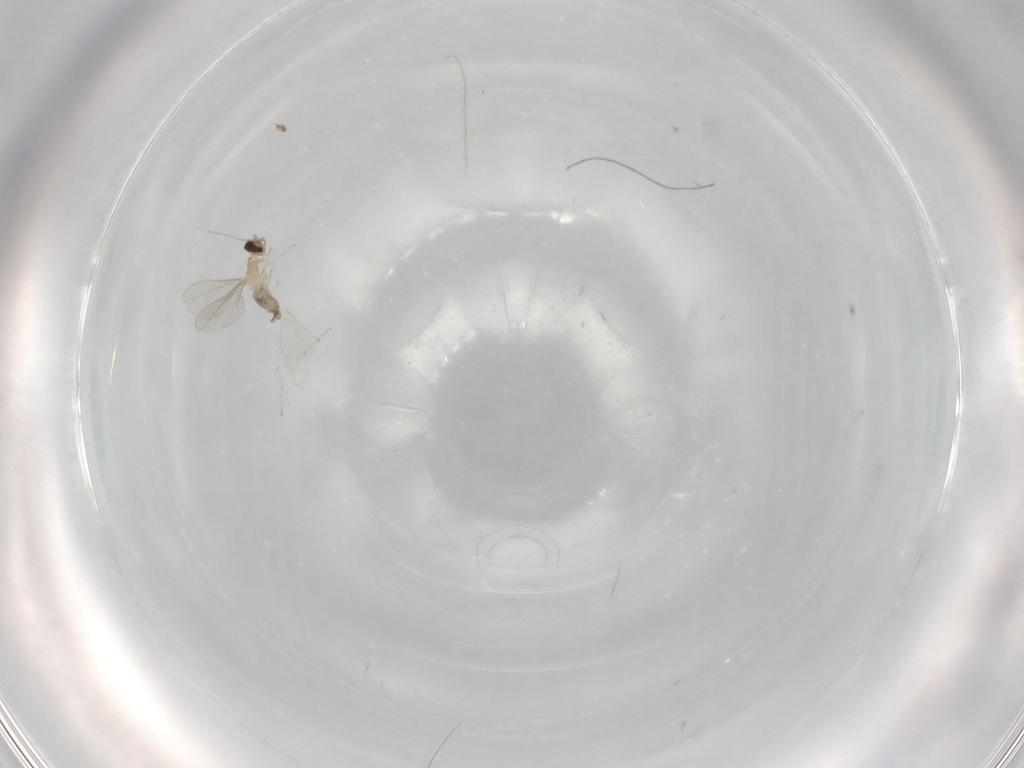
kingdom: Animalia
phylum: Arthropoda
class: Insecta
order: Diptera
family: Cecidomyiidae
